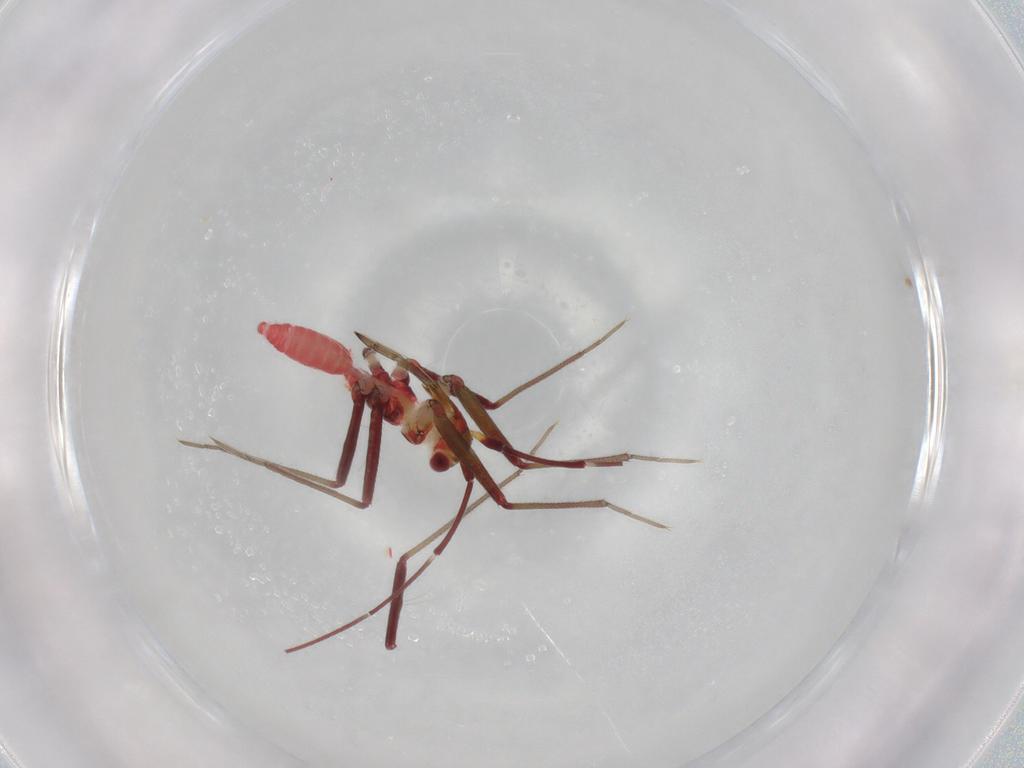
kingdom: Animalia
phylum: Arthropoda
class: Insecta
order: Hemiptera
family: Miridae
